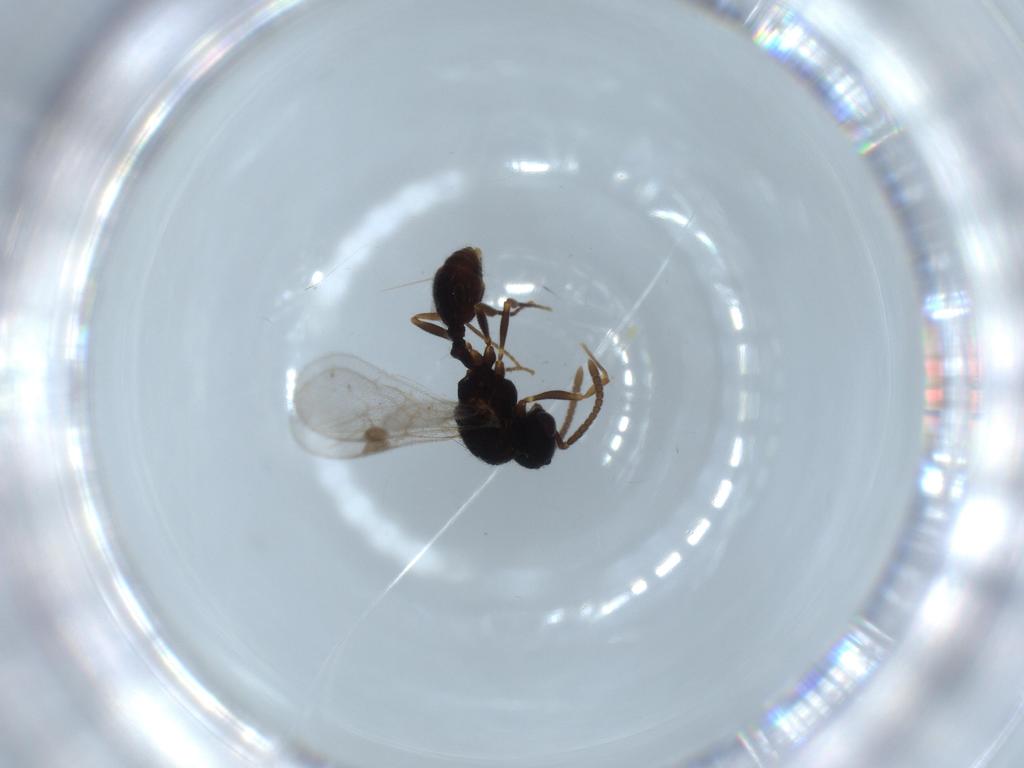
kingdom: Animalia
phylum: Arthropoda
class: Insecta
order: Hymenoptera
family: Formicidae
